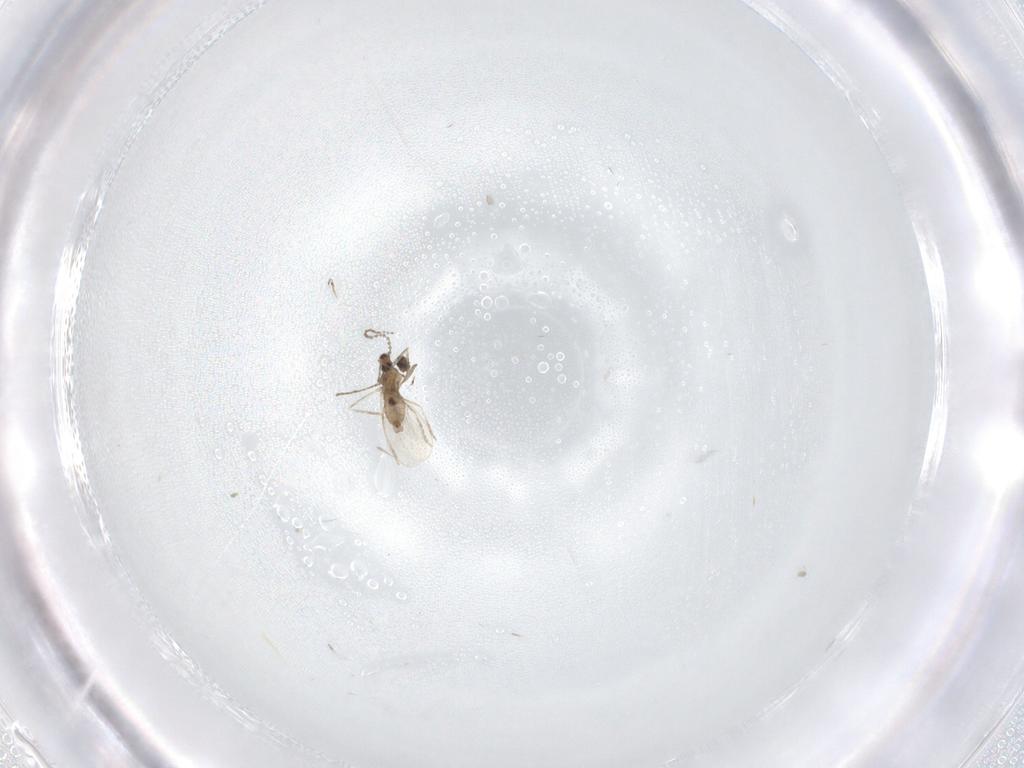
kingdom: Animalia
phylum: Arthropoda
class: Insecta
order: Diptera
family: Cecidomyiidae
